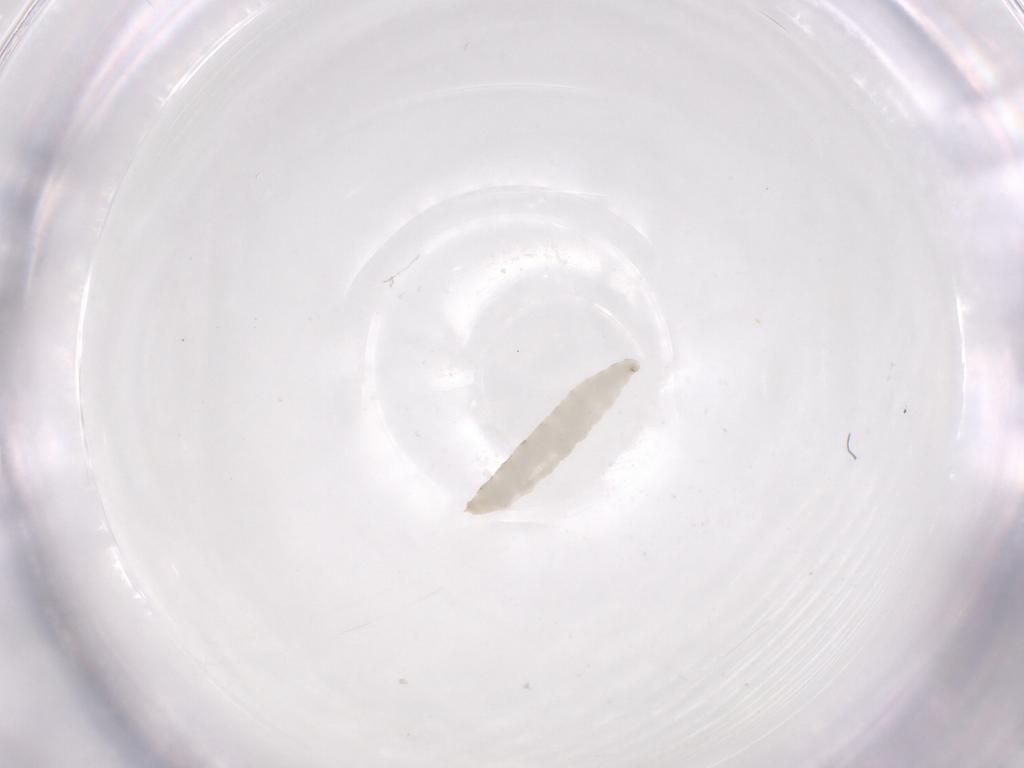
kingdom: Animalia
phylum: Arthropoda
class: Insecta
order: Diptera
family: Phoridae
